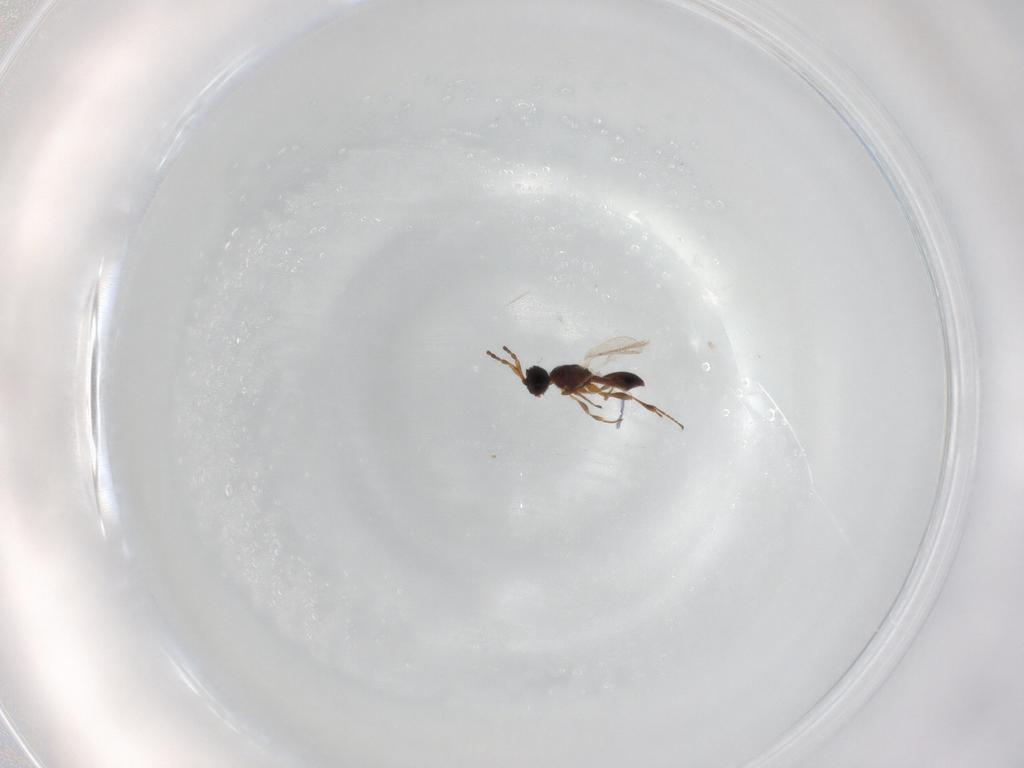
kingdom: Animalia
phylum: Arthropoda
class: Insecta
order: Hymenoptera
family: Diapriidae
